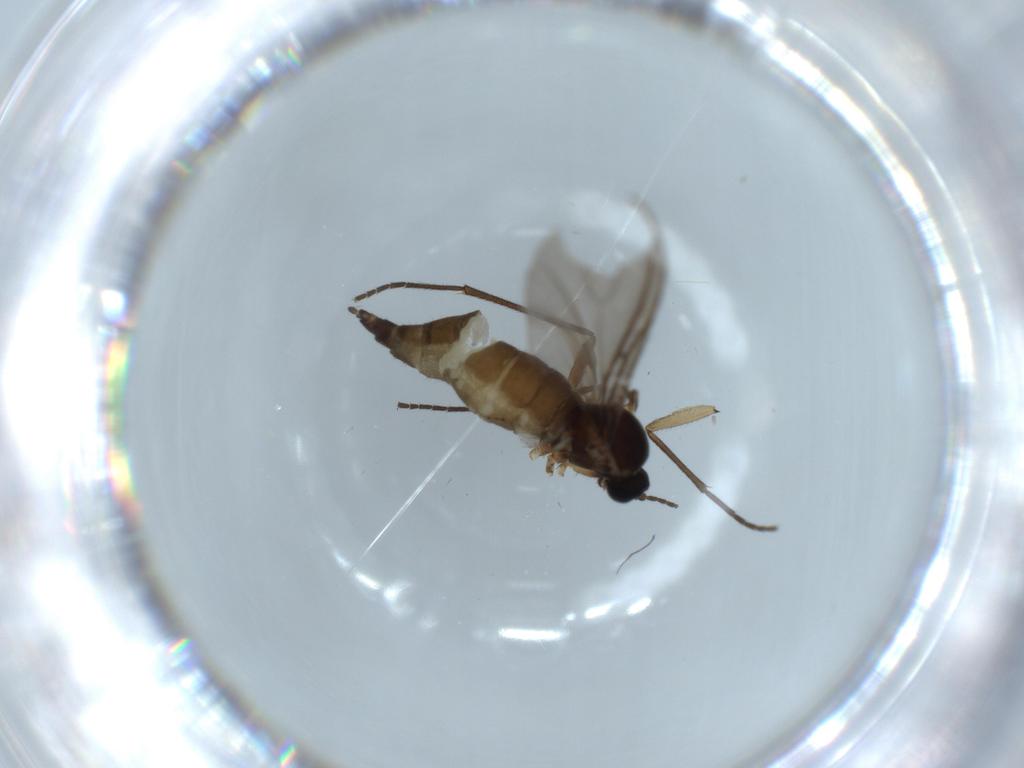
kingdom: Animalia
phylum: Arthropoda
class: Insecta
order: Diptera
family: Sciaridae
